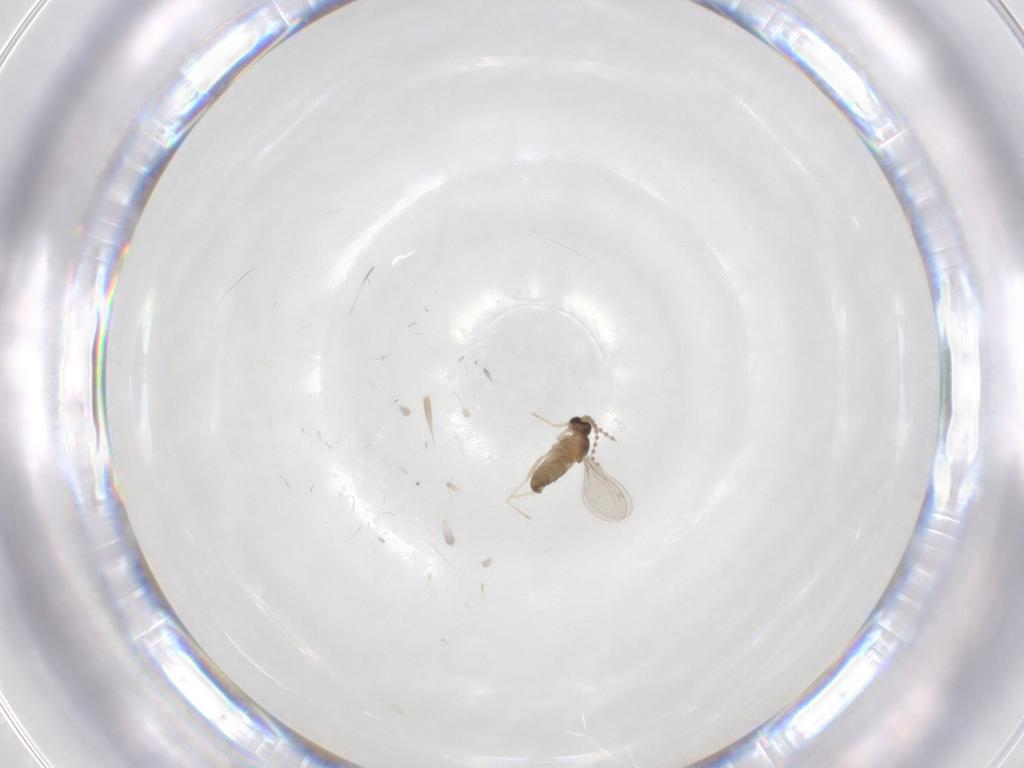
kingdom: Animalia
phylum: Arthropoda
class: Insecta
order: Diptera
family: Cecidomyiidae
